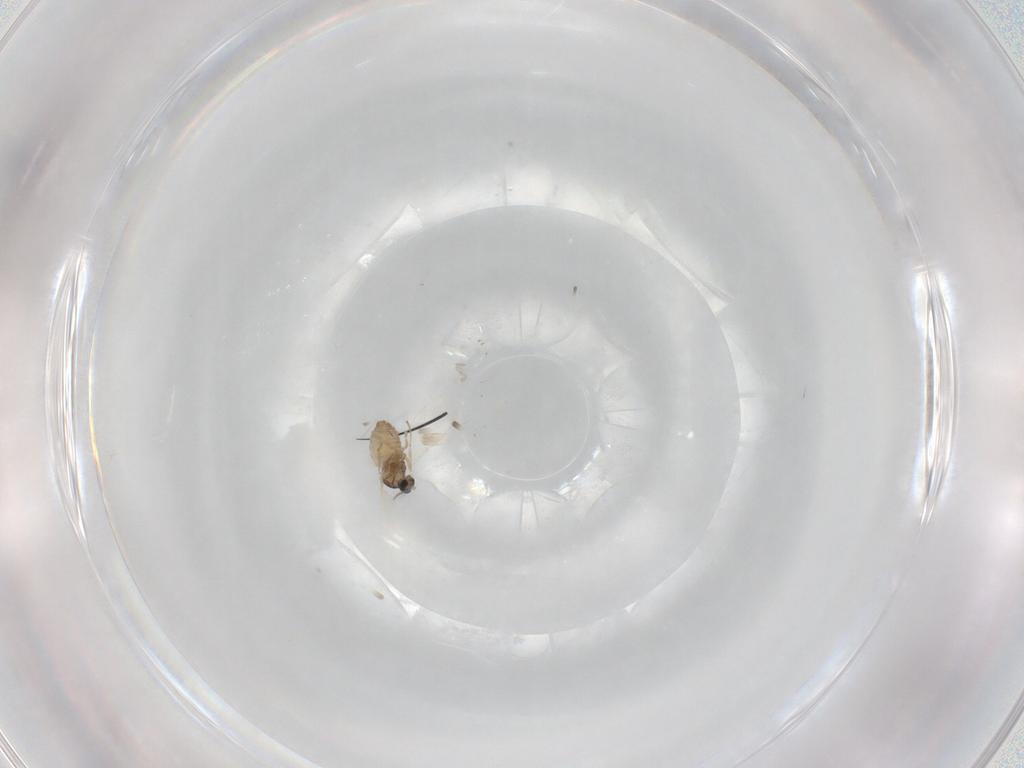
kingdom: Animalia
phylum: Arthropoda
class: Insecta
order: Diptera
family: Cecidomyiidae
